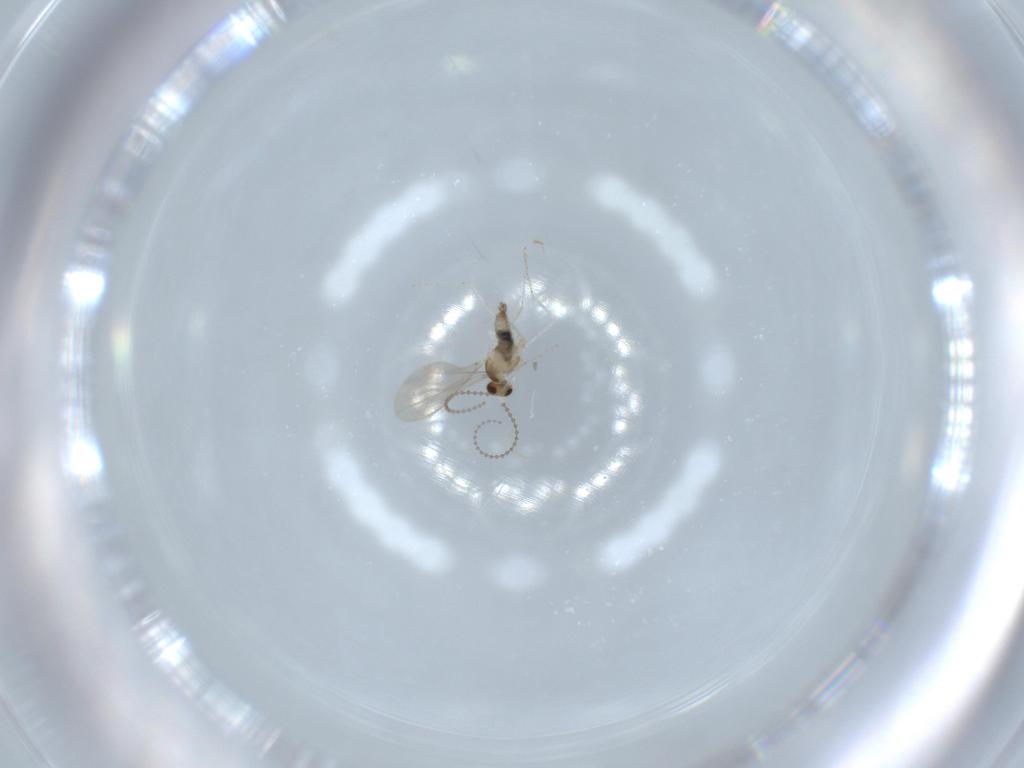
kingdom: Animalia
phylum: Arthropoda
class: Insecta
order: Diptera
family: Cecidomyiidae
